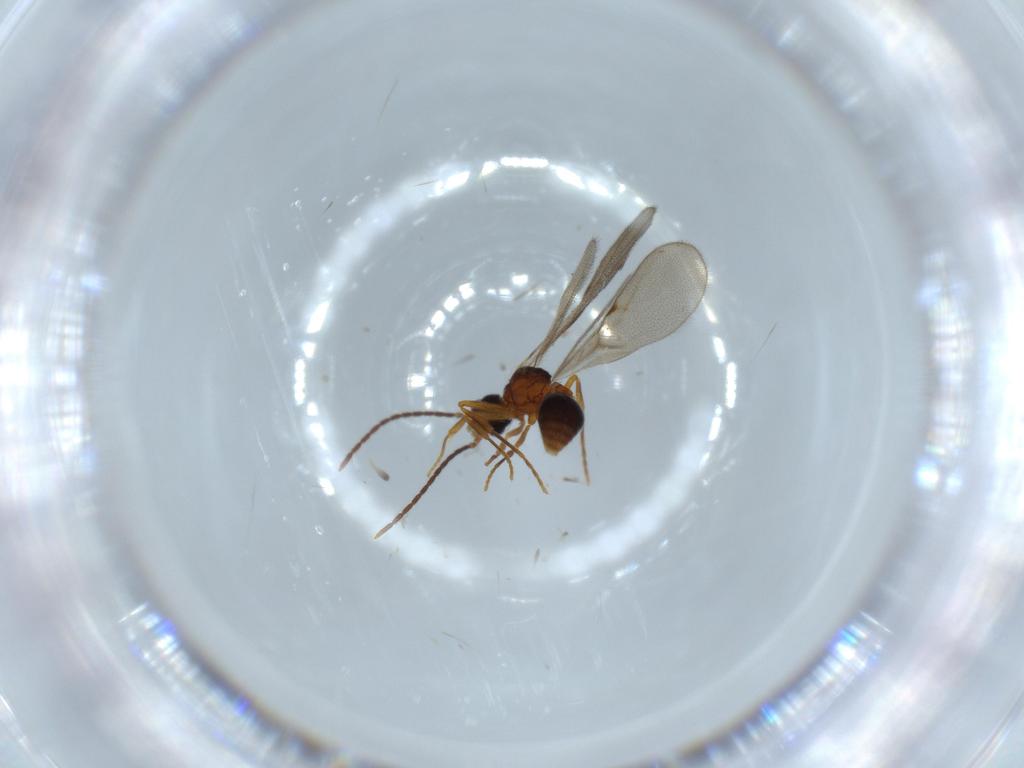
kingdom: Animalia
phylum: Arthropoda
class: Insecta
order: Hymenoptera
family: Formicidae
